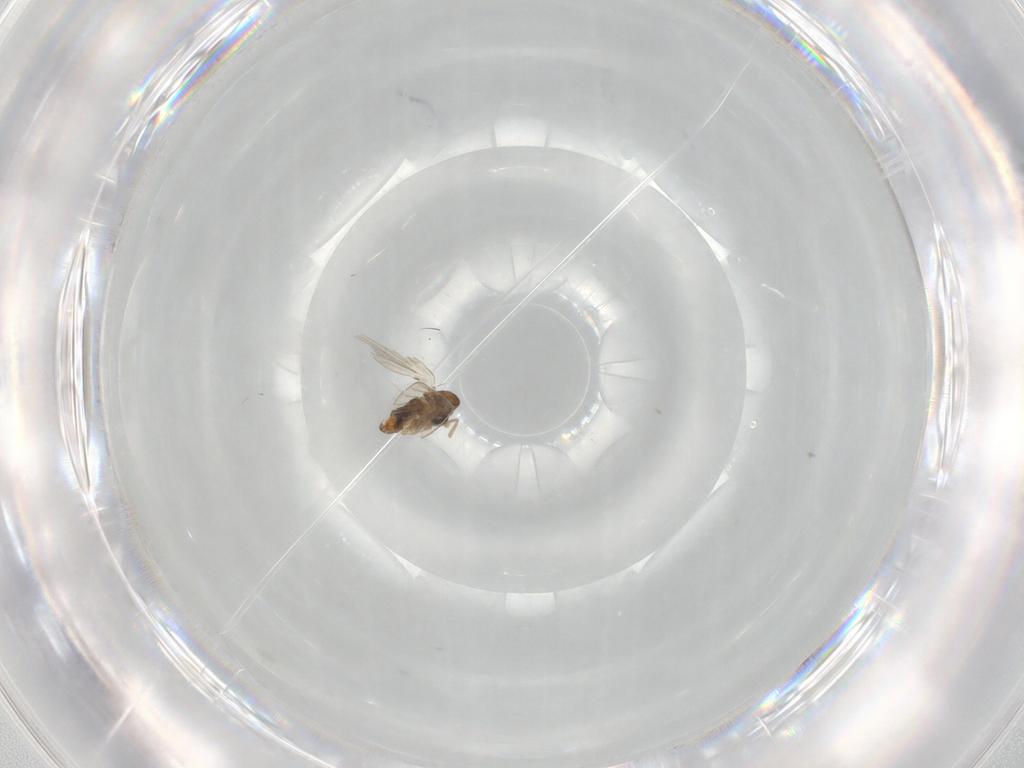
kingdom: Animalia
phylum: Arthropoda
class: Insecta
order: Diptera
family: Psychodidae
